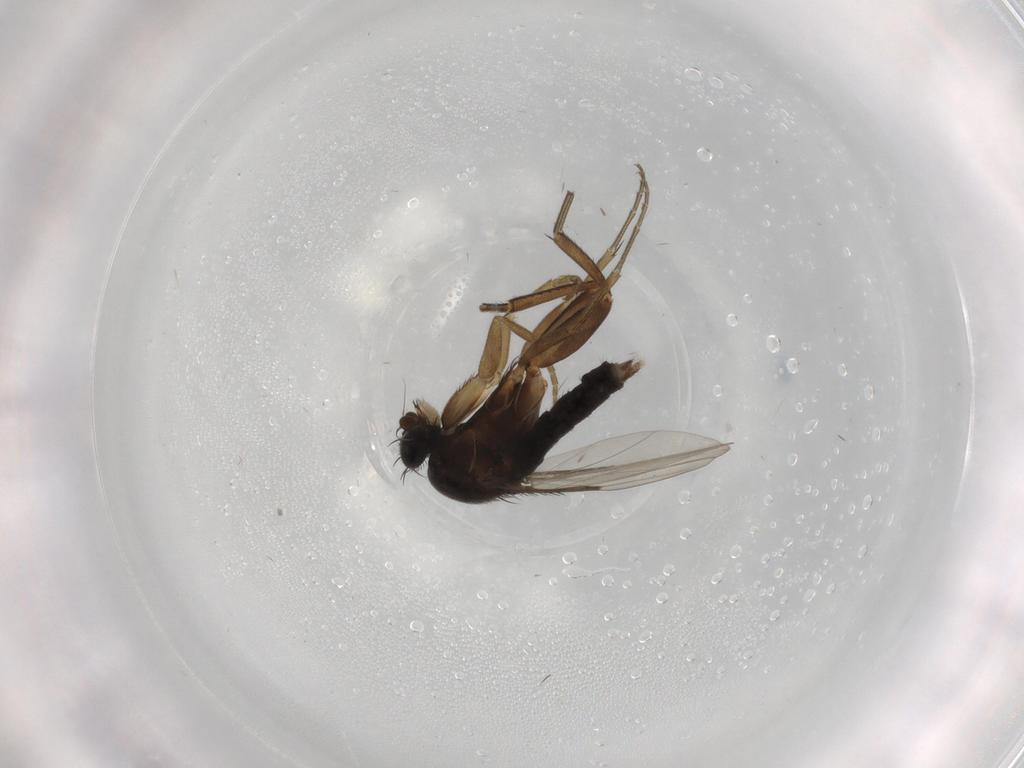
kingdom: Animalia
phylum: Arthropoda
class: Insecta
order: Diptera
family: Phoridae
